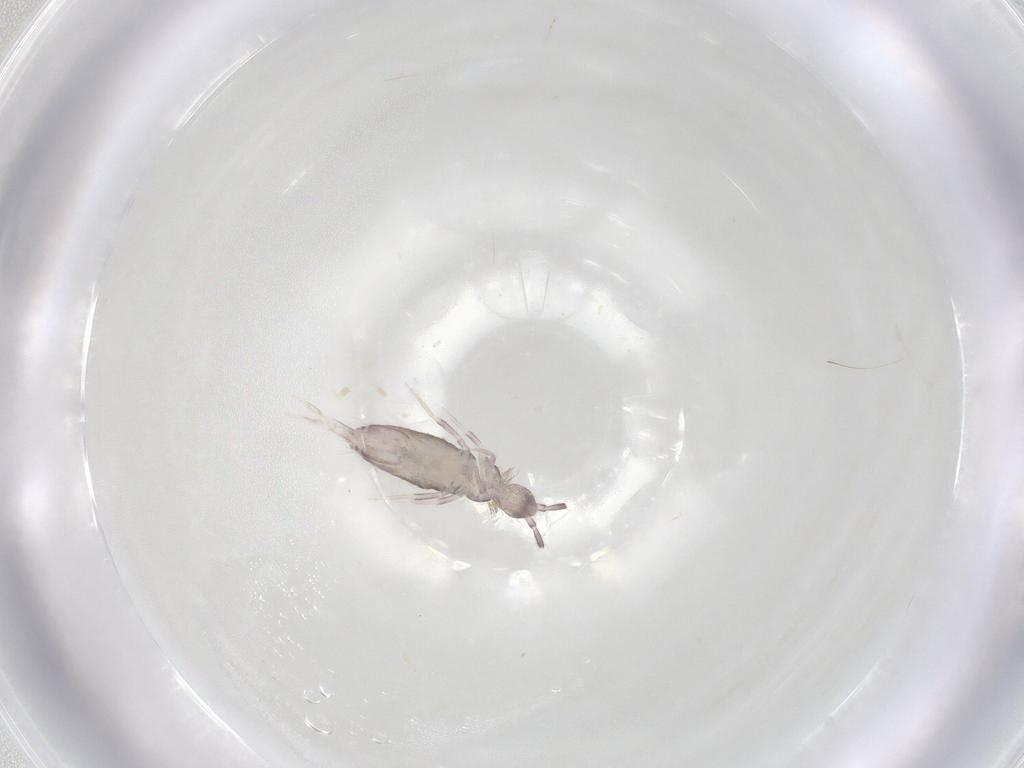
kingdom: Animalia
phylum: Arthropoda
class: Collembola
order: Poduromorpha
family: Hypogastruridae
